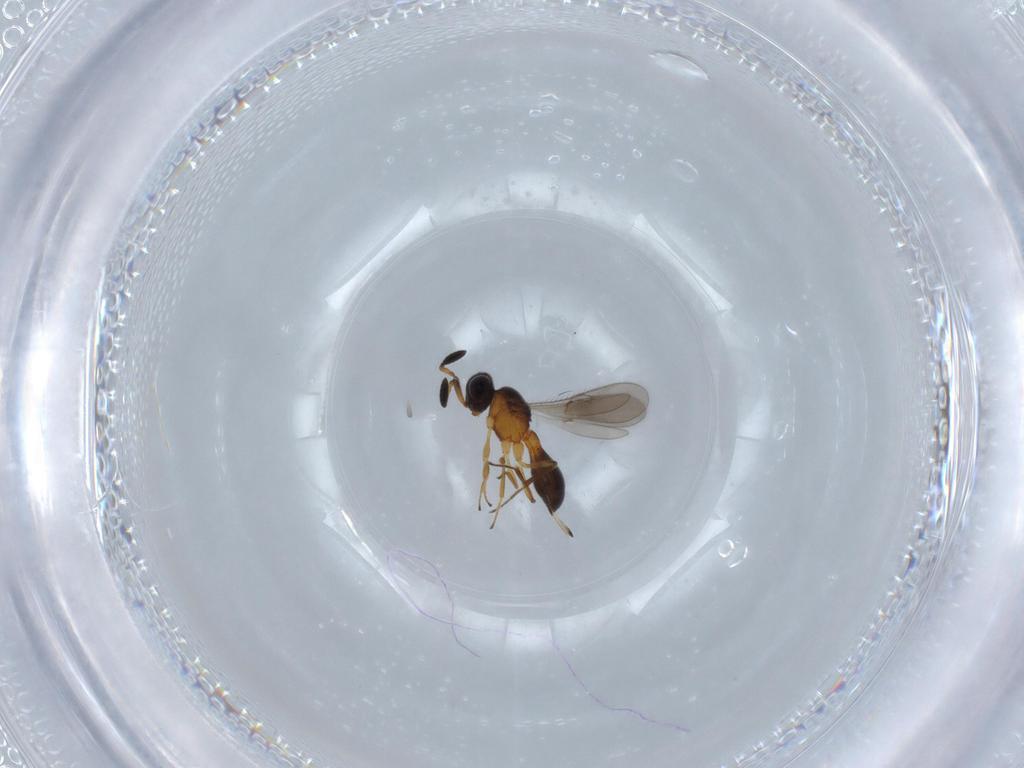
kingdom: Animalia
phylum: Arthropoda
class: Insecta
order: Hymenoptera
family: Scelionidae
